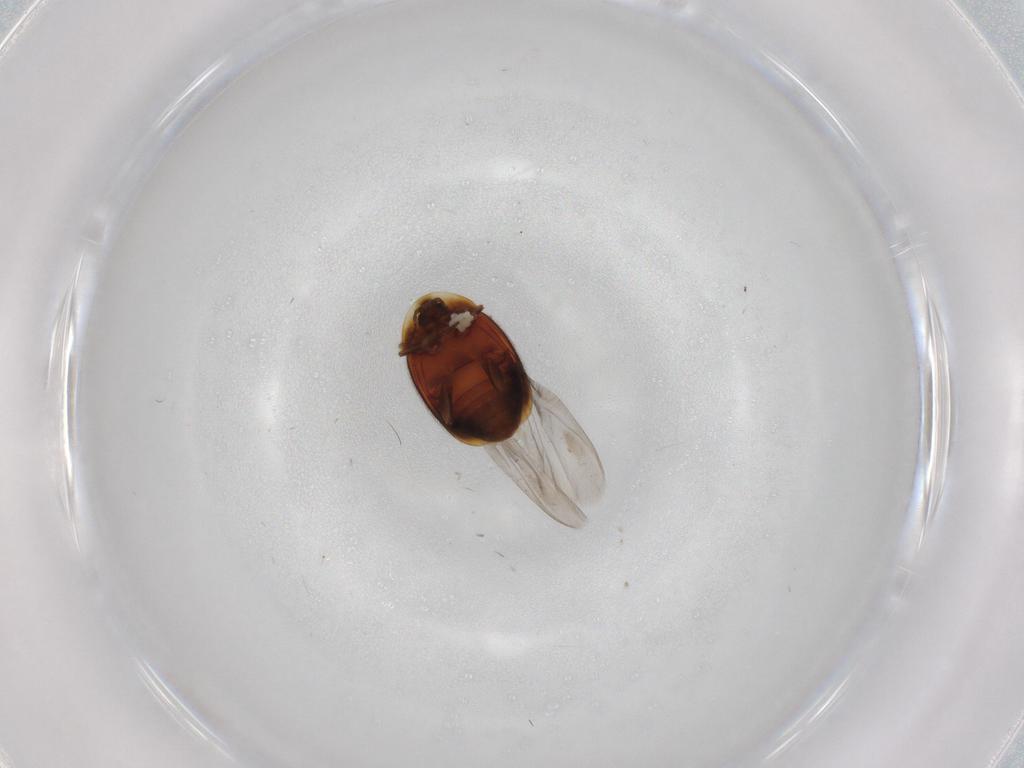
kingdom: Animalia
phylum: Arthropoda
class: Insecta
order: Coleoptera
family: Corylophidae
